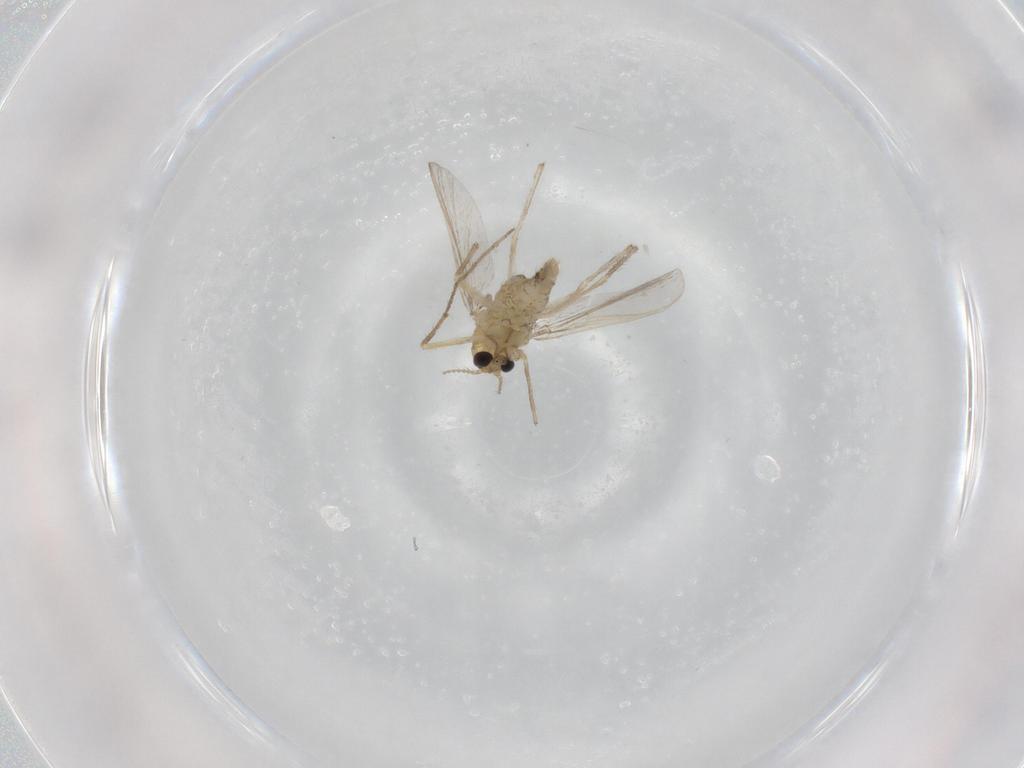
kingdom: Animalia
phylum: Arthropoda
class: Insecta
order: Diptera
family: Chironomidae
